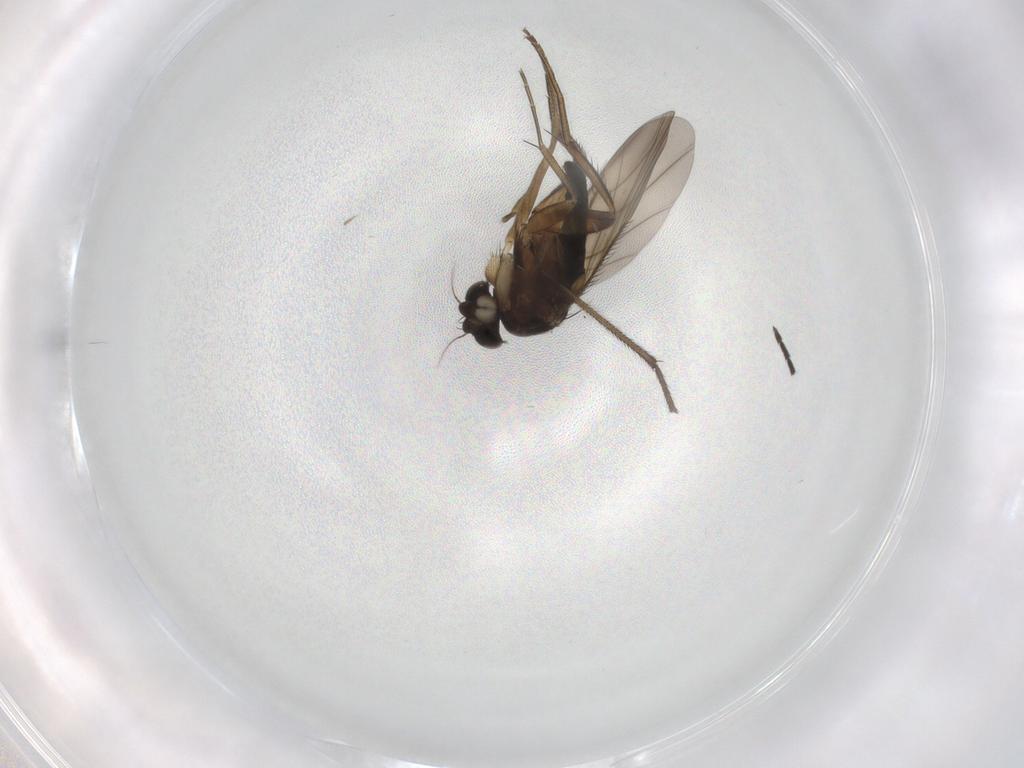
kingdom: Animalia
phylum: Arthropoda
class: Insecta
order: Diptera
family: Phoridae
